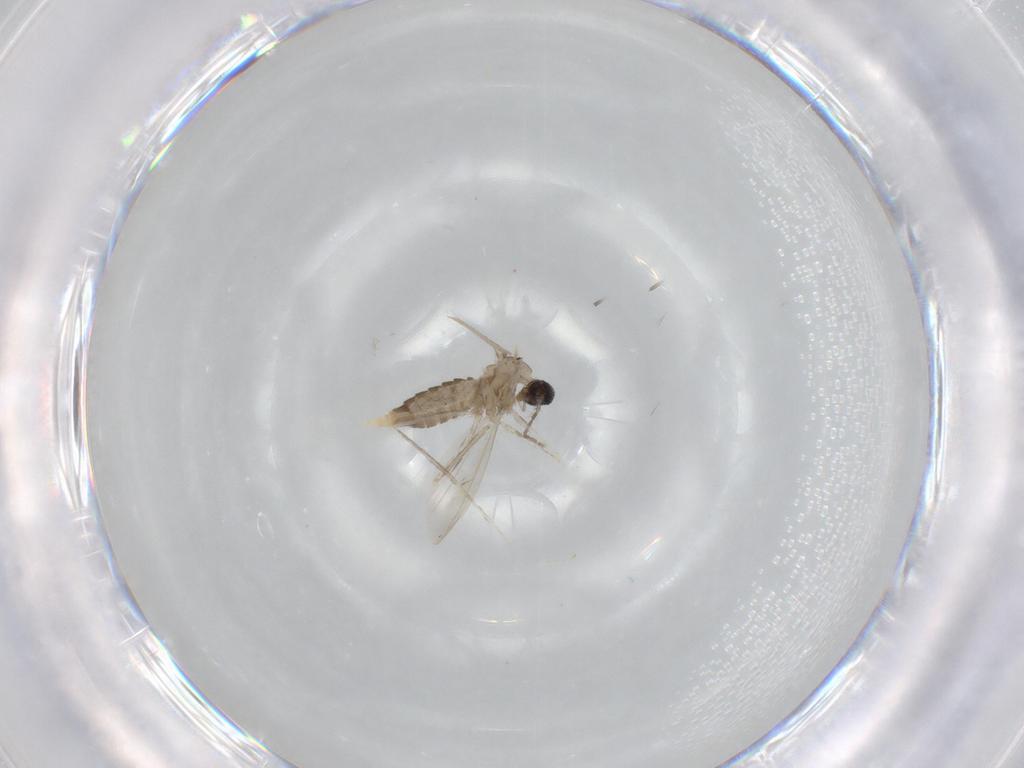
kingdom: Animalia
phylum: Arthropoda
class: Insecta
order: Diptera
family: Cecidomyiidae
